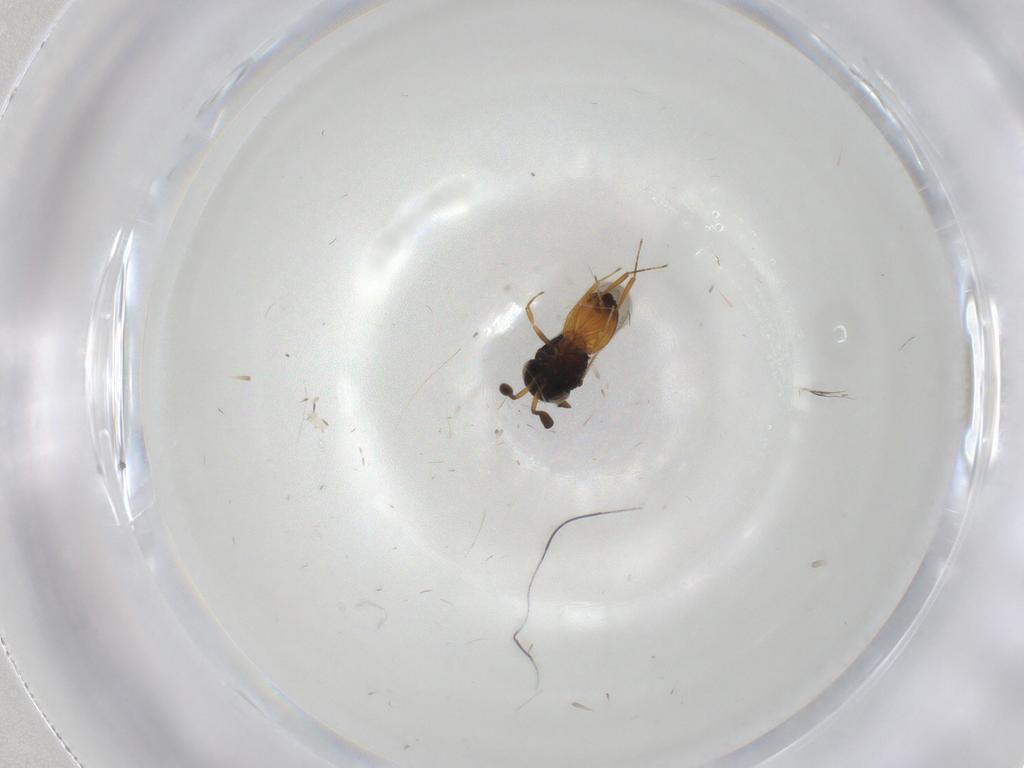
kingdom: Animalia
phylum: Arthropoda
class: Insecta
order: Hymenoptera
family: Scelionidae
